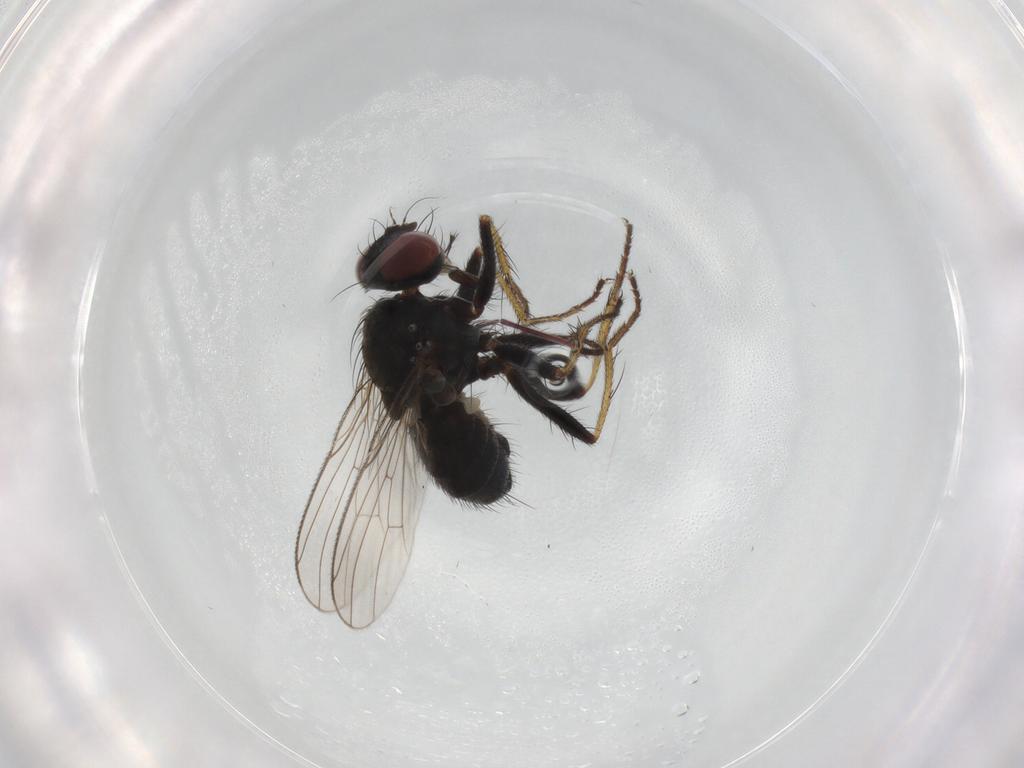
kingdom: Animalia
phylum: Arthropoda
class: Insecta
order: Diptera
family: Muscidae
